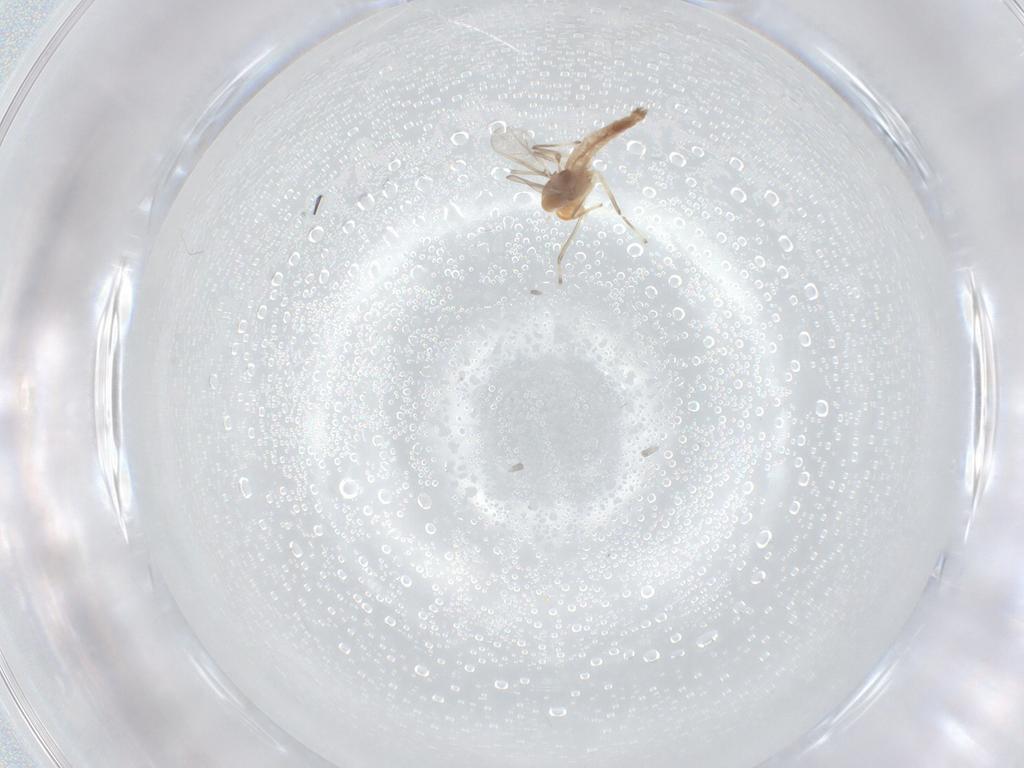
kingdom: Animalia
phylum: Arthropoda
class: Insecta
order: Diptera
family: Chironomidae
